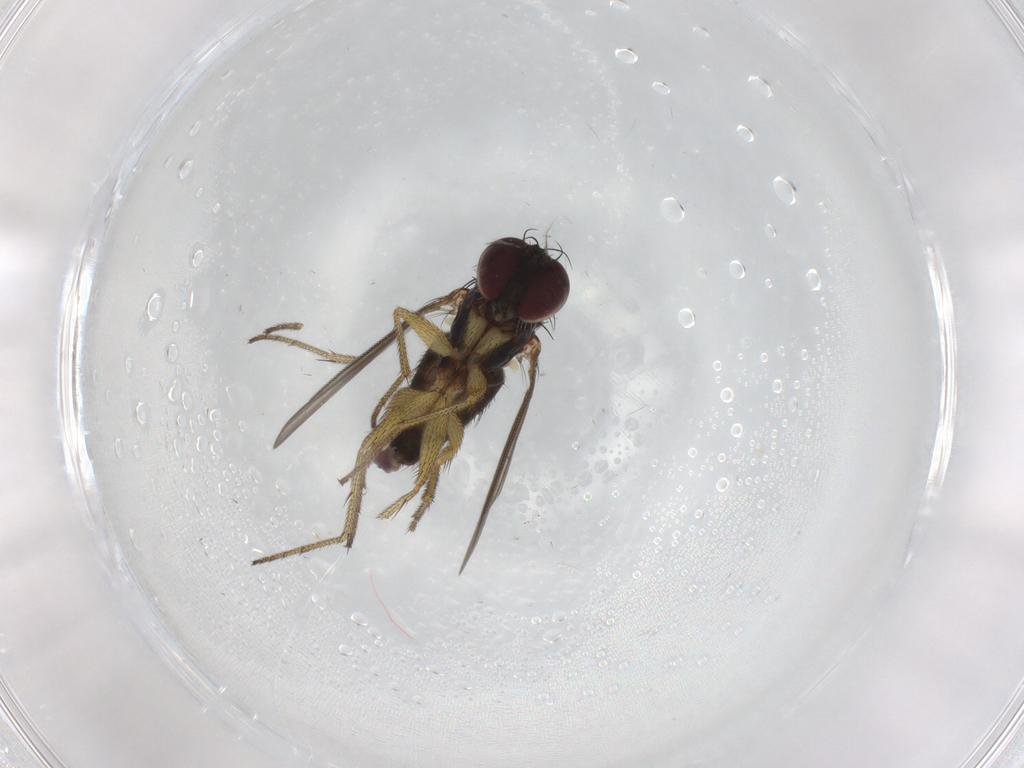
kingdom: Animalia
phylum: Arthropoda
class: Insecta
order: Diptera
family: Dolichopodidae
